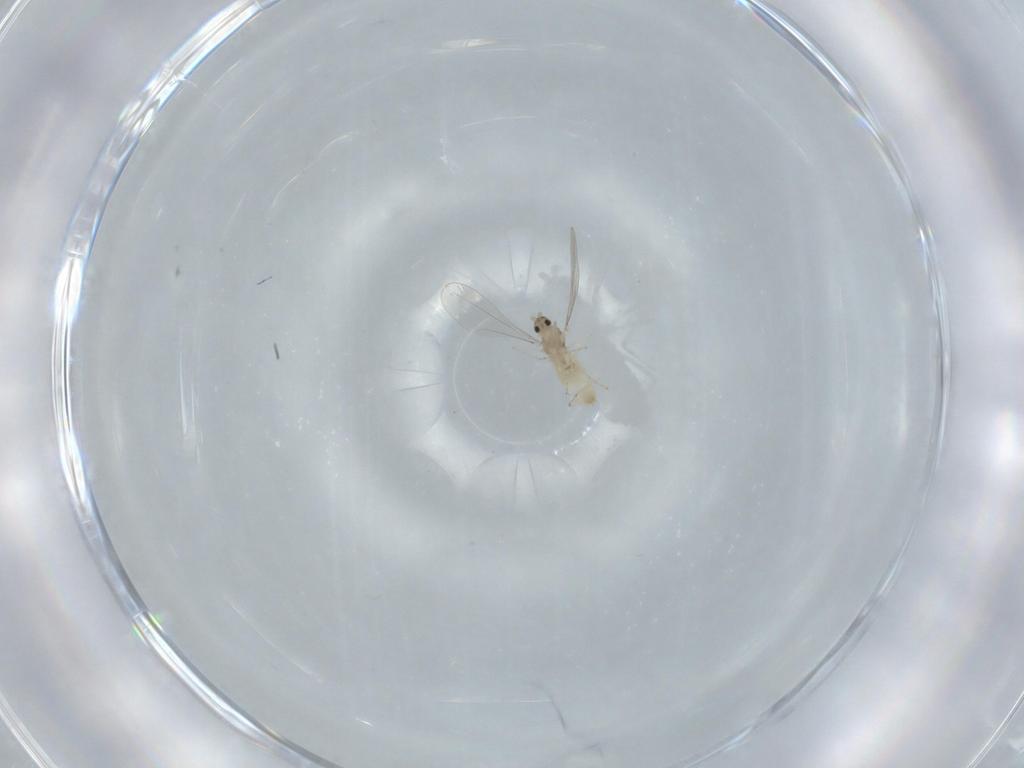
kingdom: Animalia
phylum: Arthropoda
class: Insecta
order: Diptera
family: Cecidomyiidae
